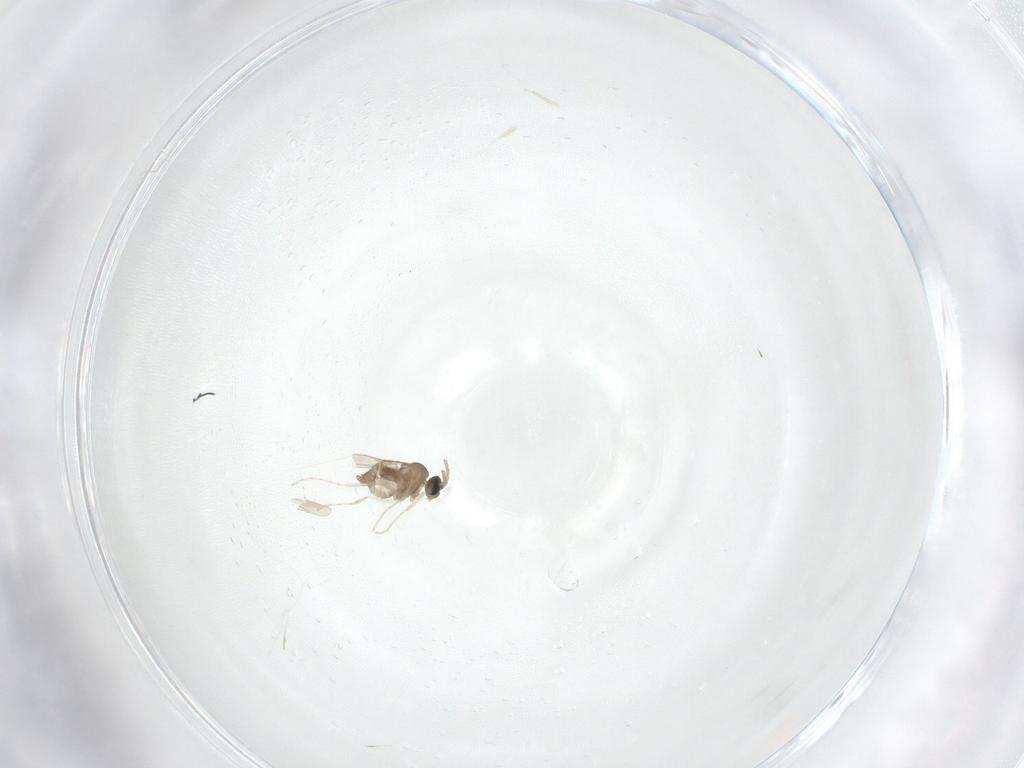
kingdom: Animalia
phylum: Arthropoda
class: Insecta
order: Diptera
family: Cecidomyiidae
